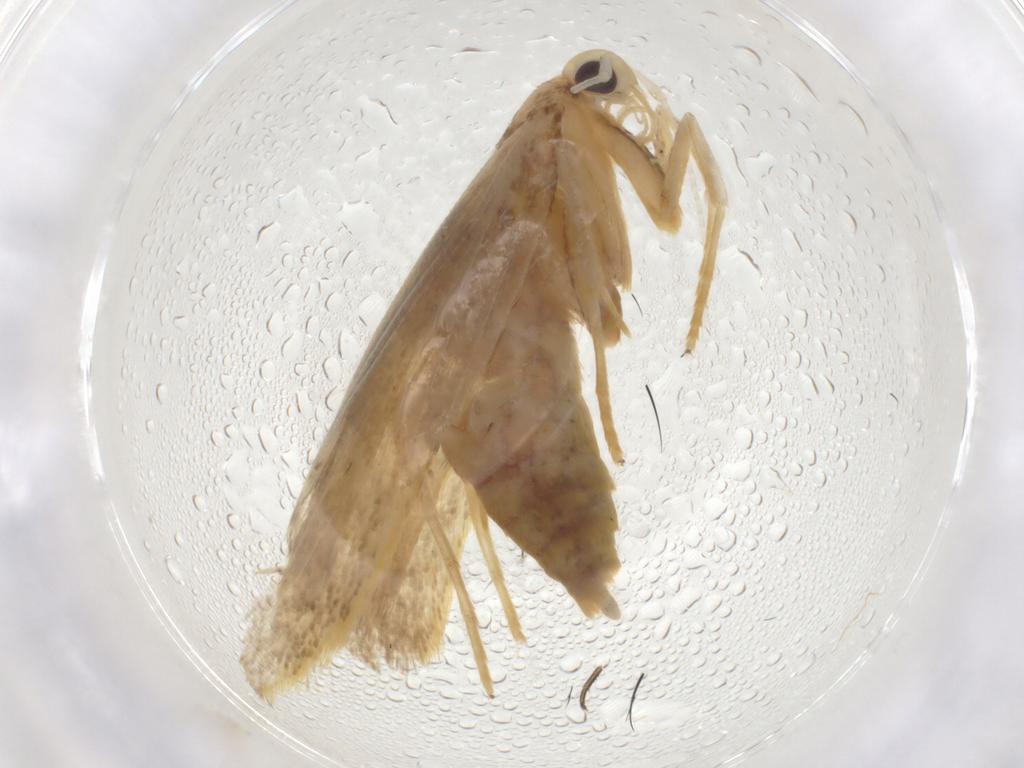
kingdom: Animalia
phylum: Arthropoda
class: Insecta
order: Lepidoptera
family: Lecithoceridae
